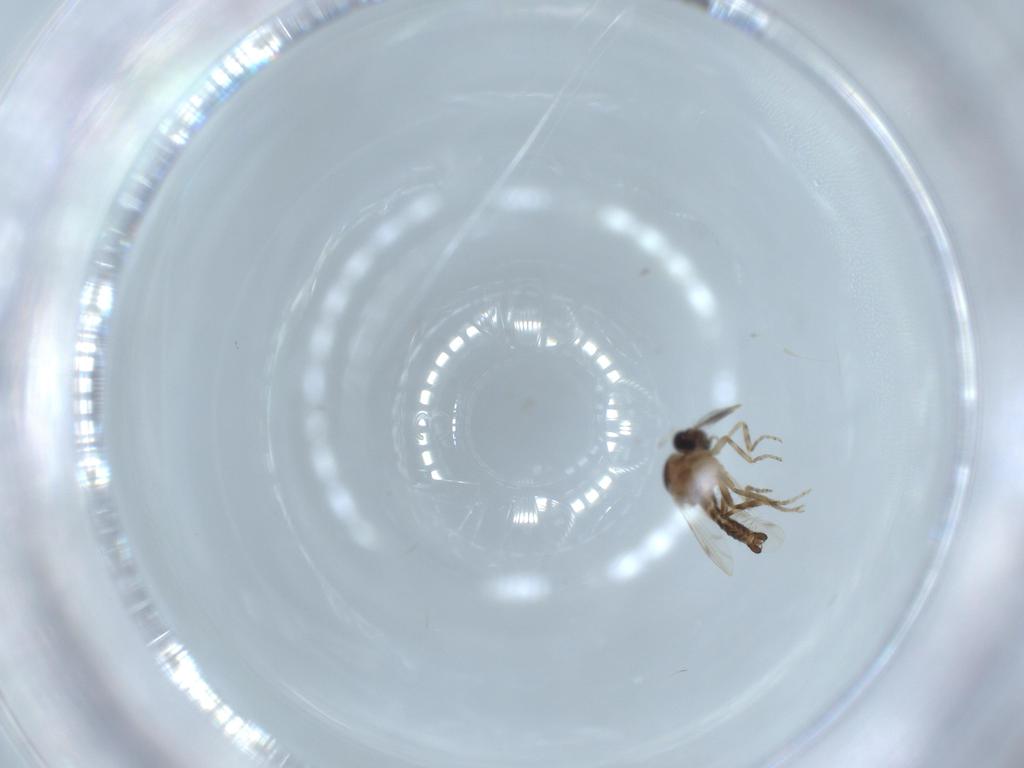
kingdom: Animalia
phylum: Arthropoda
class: Insecta
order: Diptera
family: Ceratopogonidae
